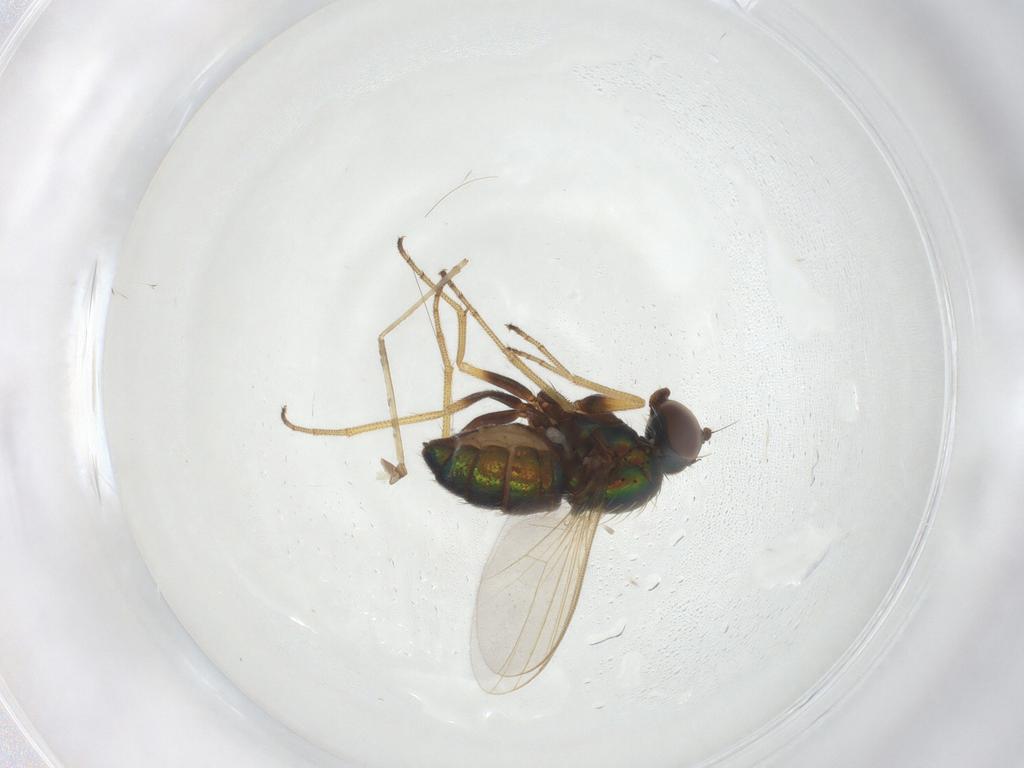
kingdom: Animalia
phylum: Arthropoda
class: Insecta
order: Diptera
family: Dolichopodidae
